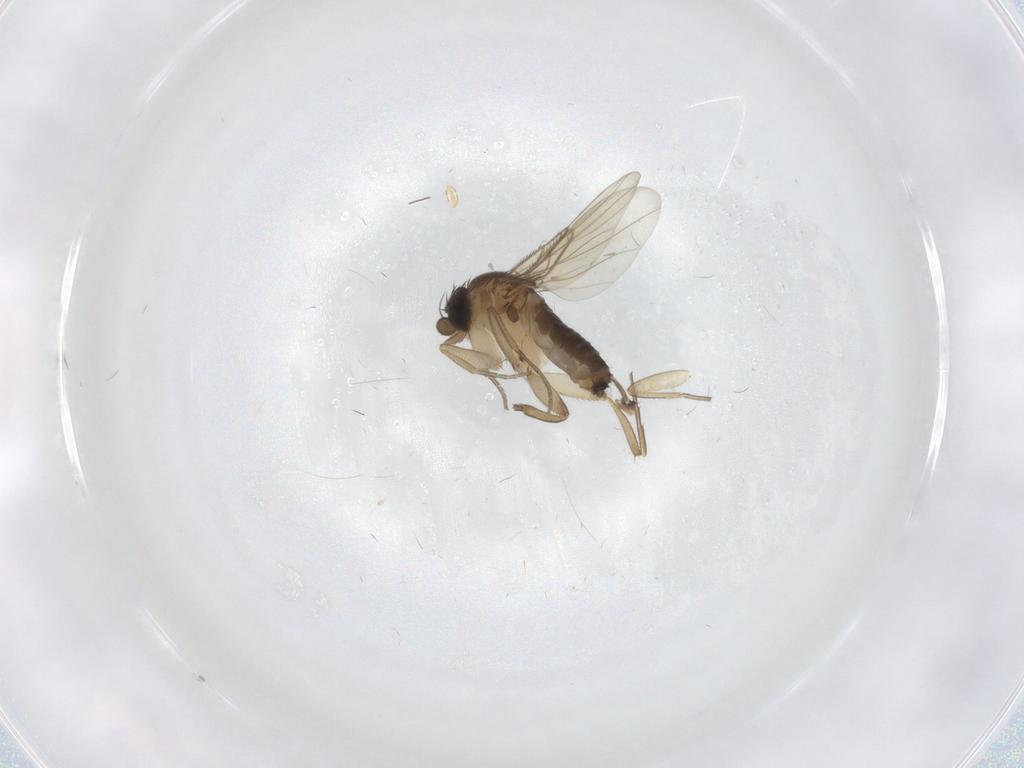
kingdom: Animalia
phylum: Arthropoda
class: Insecta
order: Diptera
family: Phoridae
